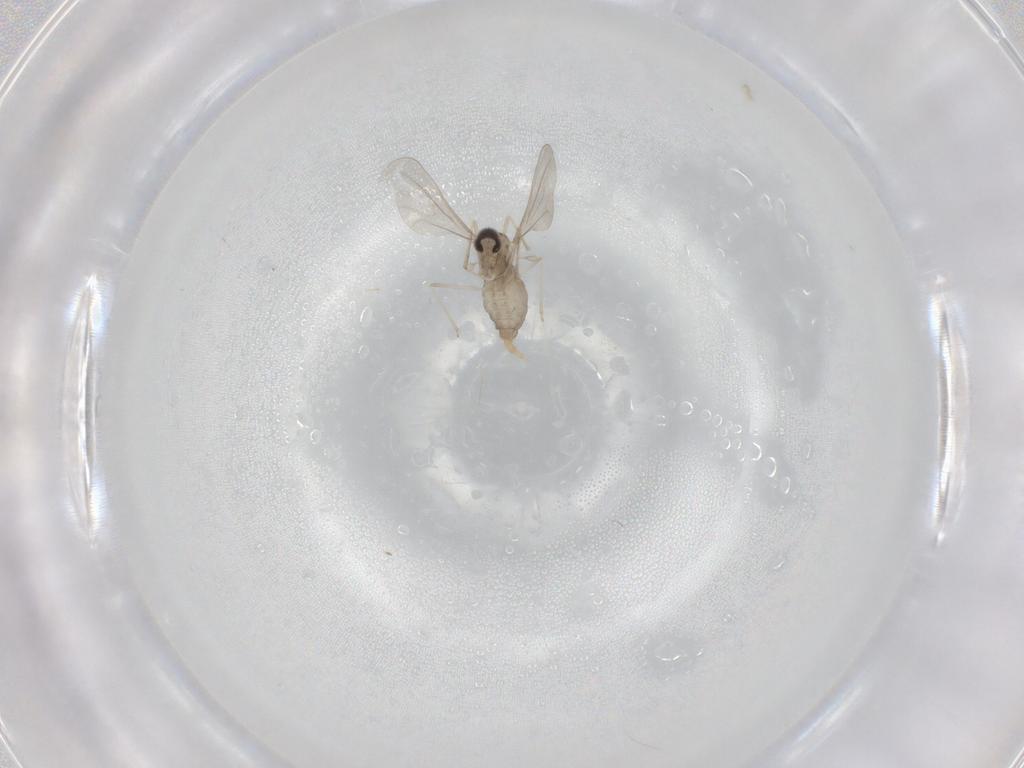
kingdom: Animalia
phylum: Arthropoda
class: Insecta
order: Diptera
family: Cecidomyiidae
